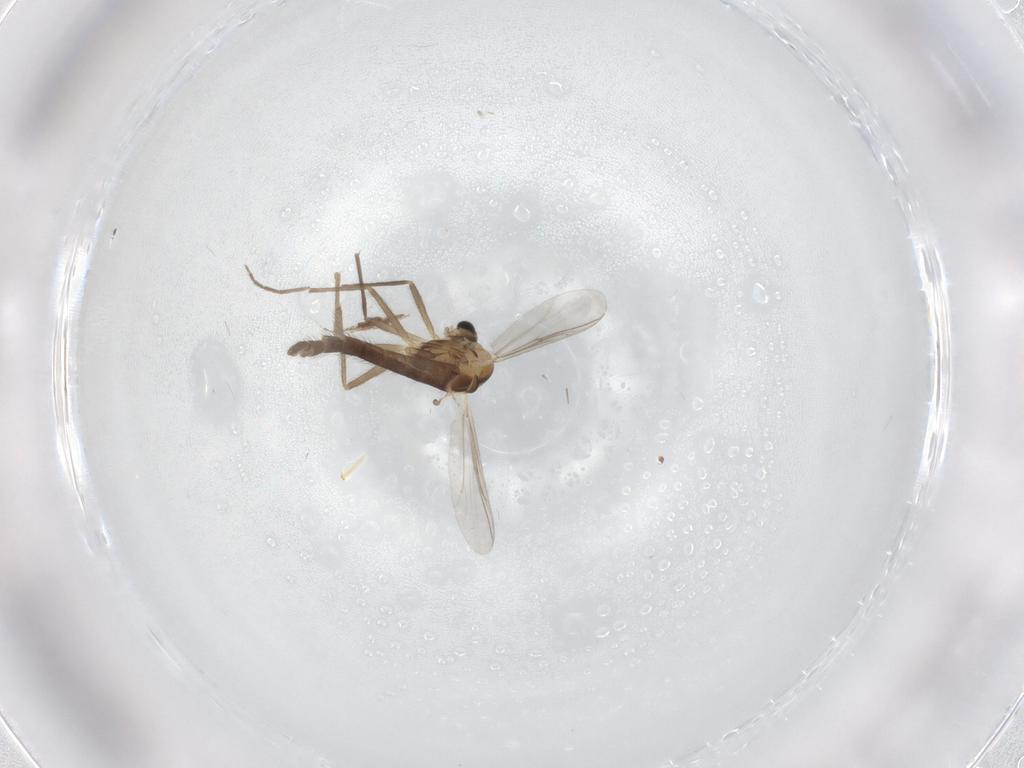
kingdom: Animalia
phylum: Arthropoda
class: Insecta
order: Diptera
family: Chironomidae
